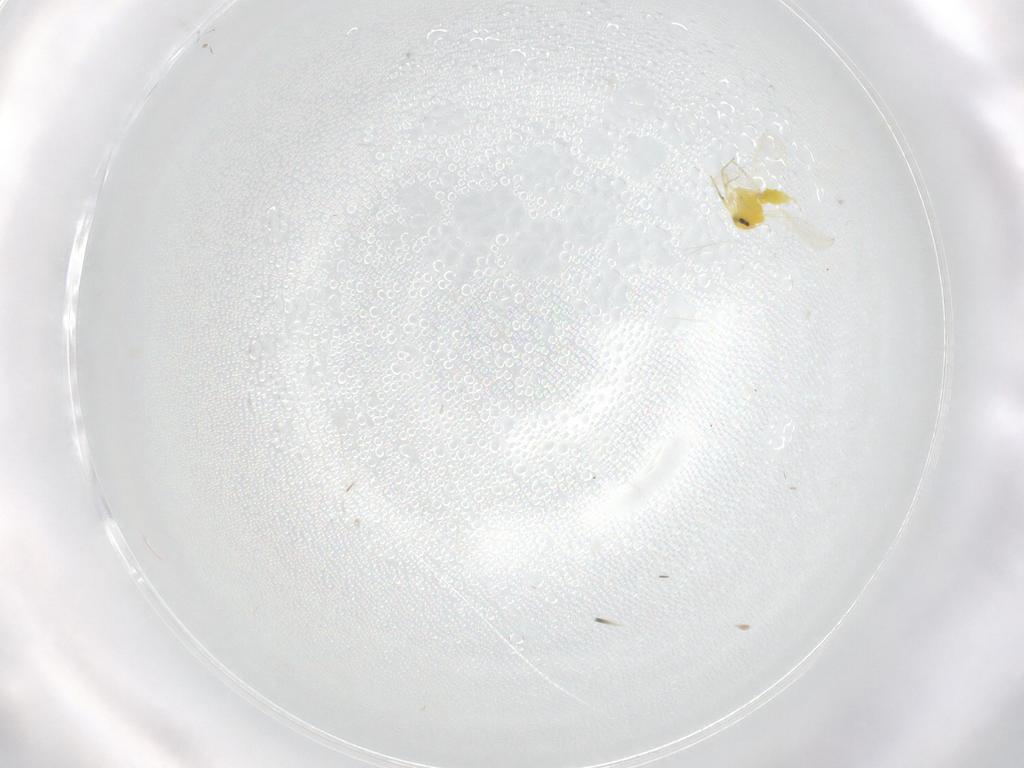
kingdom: Animalia
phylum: Arthropoda
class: Insecta
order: Hemiptera
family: Aleyrodidae
